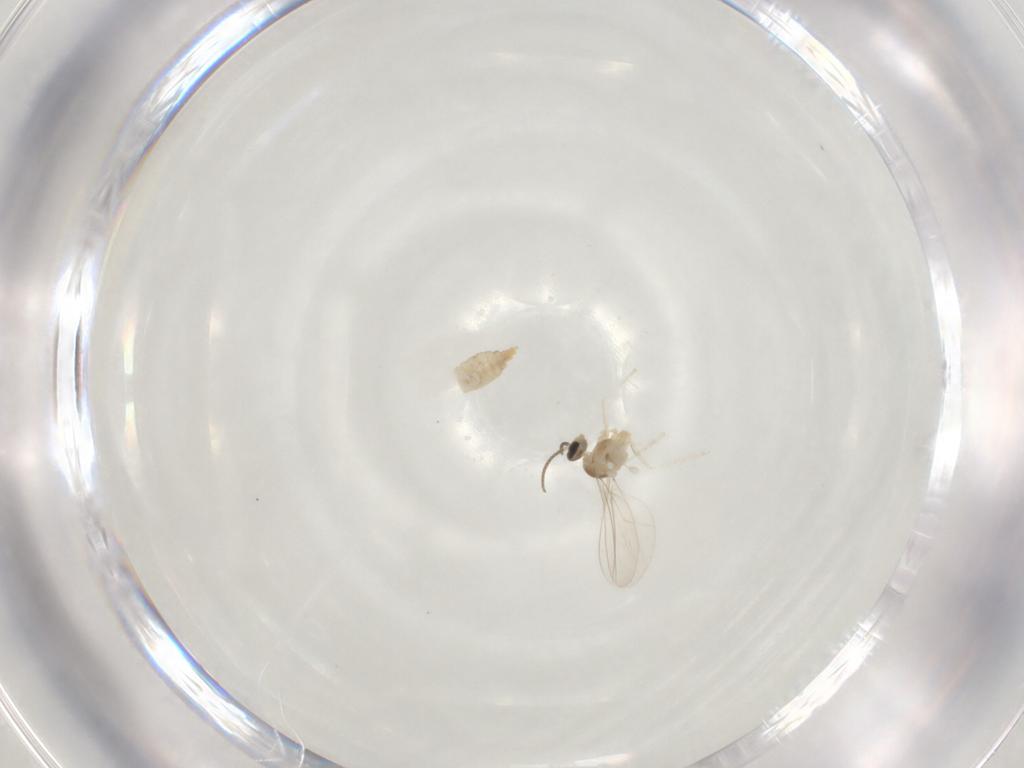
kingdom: Animalia
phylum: Arthropoda
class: Insecta
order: Diptera
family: Cecidomyiidae
